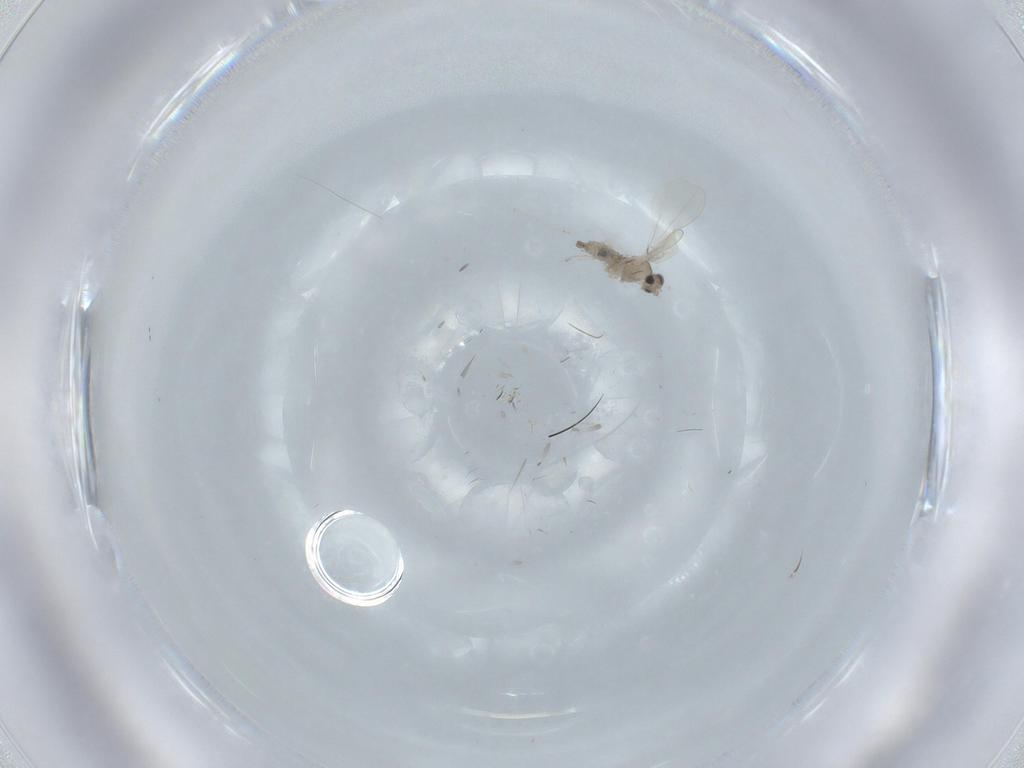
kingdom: Animalia
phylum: Arthropoda
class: Insecta
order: Diptera
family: Cecidomyiidae
